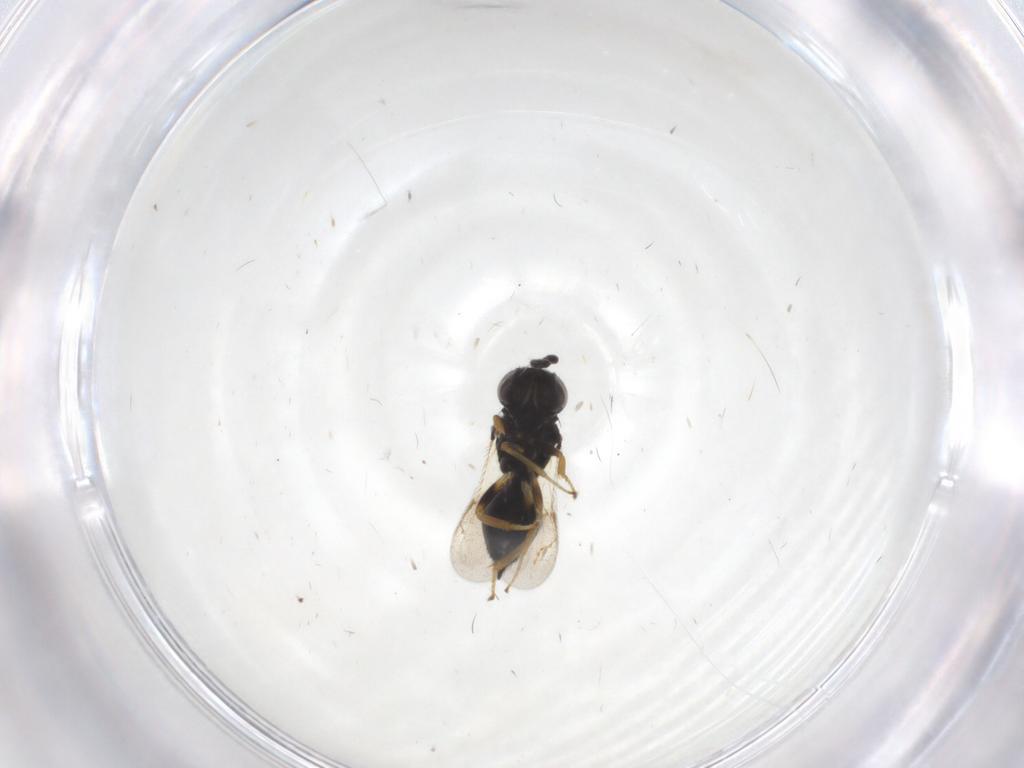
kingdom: Animalia
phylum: Arthropoda
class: Insecta
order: Hymenoptera
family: Pteromalidae
